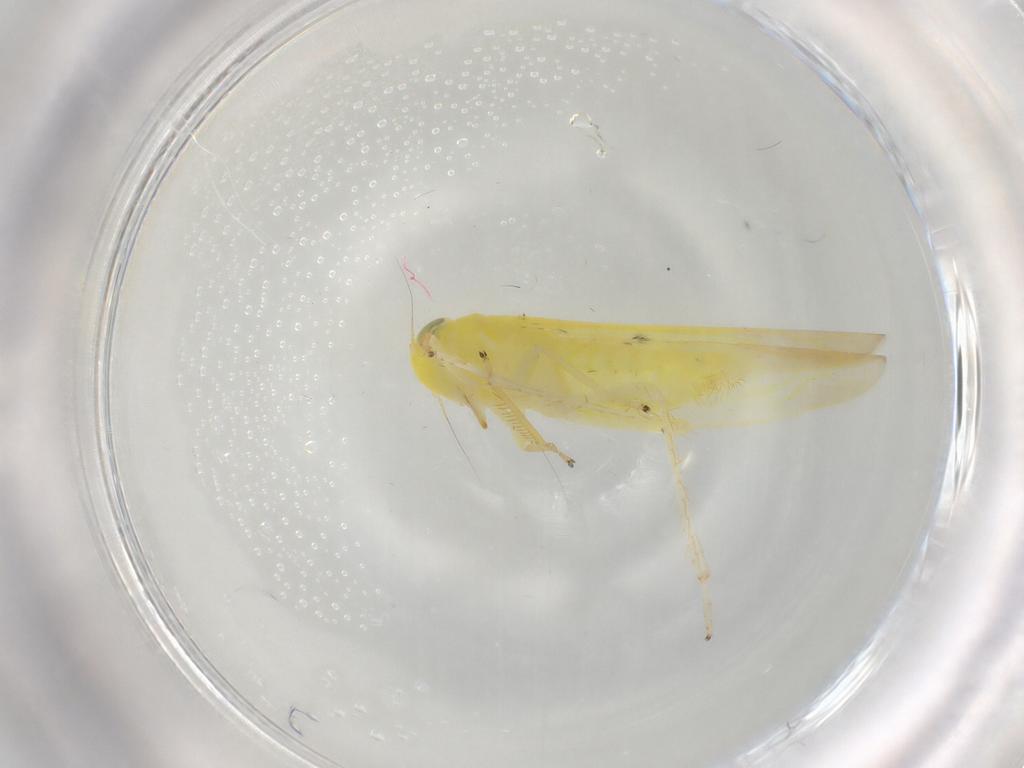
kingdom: Animalia
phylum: Arthropoda
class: Insecta
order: Hemiptera
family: Cicadellidae
